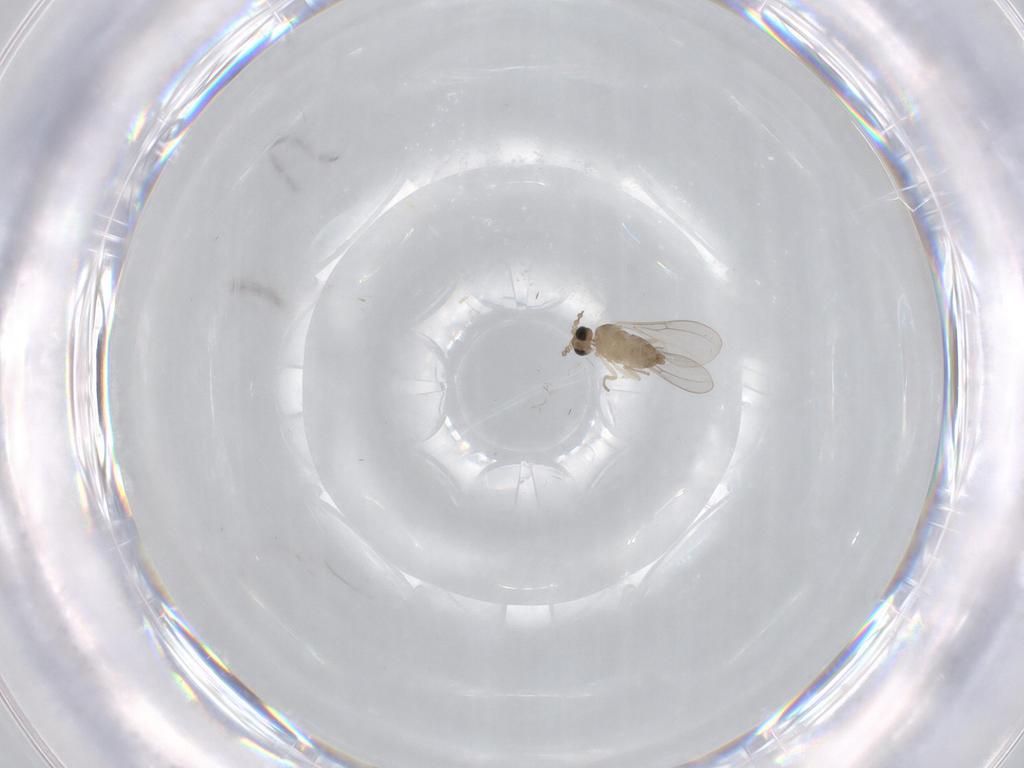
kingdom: Animalia
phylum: Arthropoda
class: Insecta
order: Diptera
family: Cecidomyiidae
